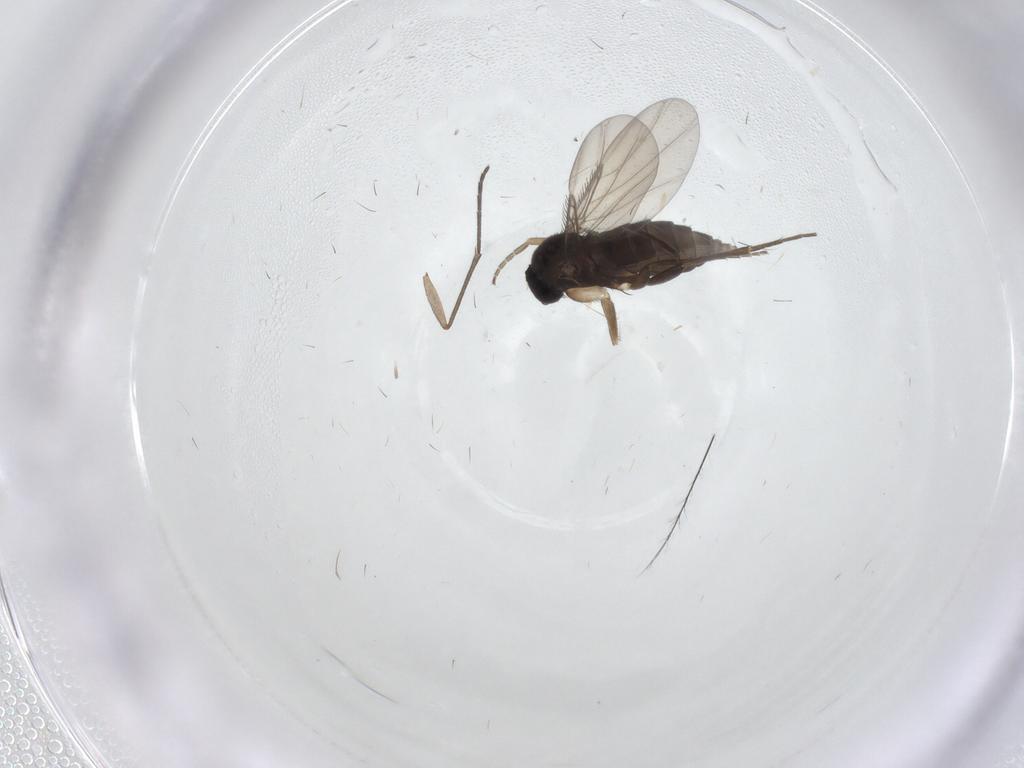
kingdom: Animalia
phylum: Arthropoda
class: Insecta
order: Diptera
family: Phoridae
